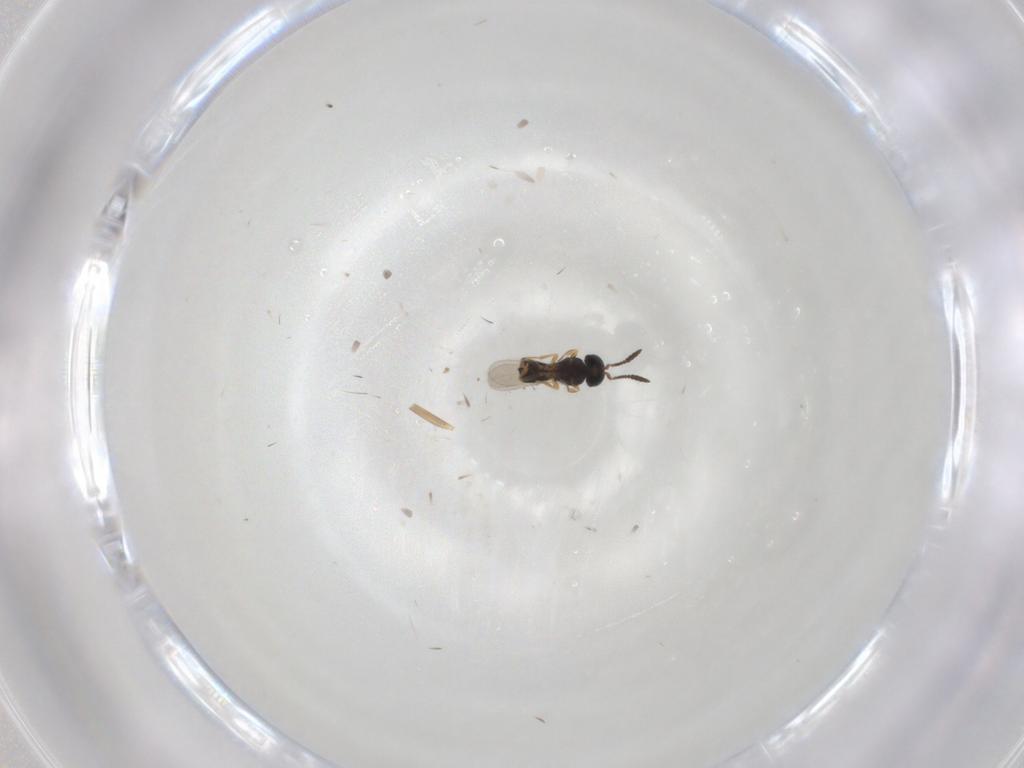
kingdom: Animalia
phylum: Arthropoda
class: Insecta
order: Hymenoptera
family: Scelionidae
